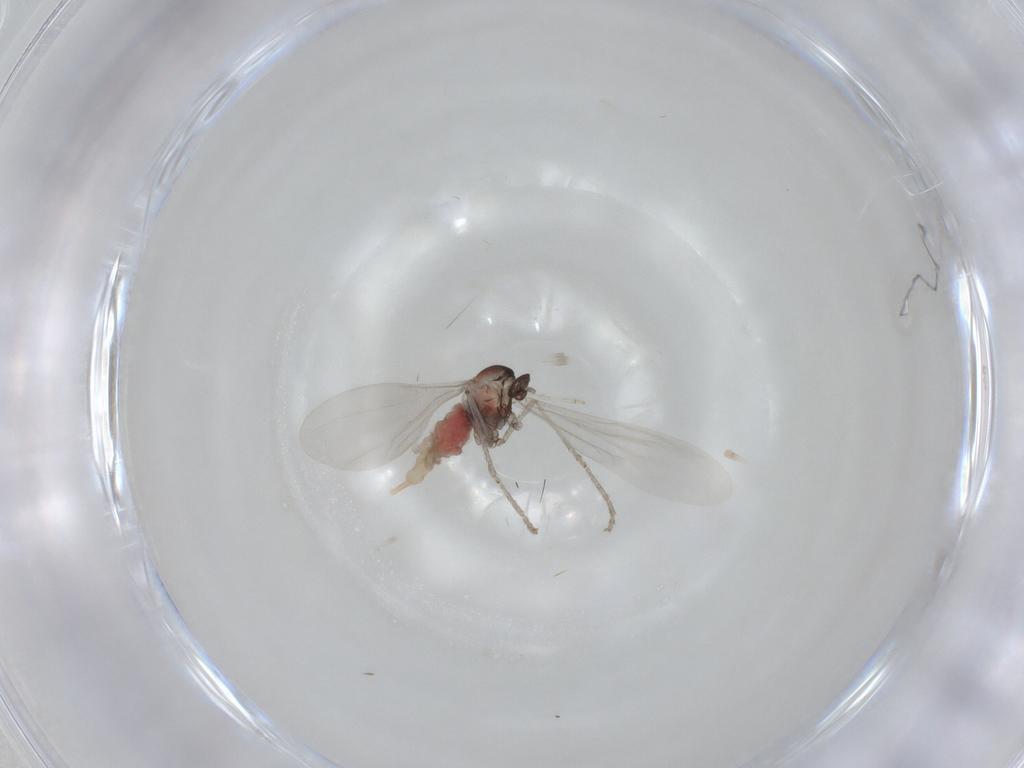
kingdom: Animalia
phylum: Arthropoda
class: Insecta
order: Diptera
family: Cecidomyiidae
